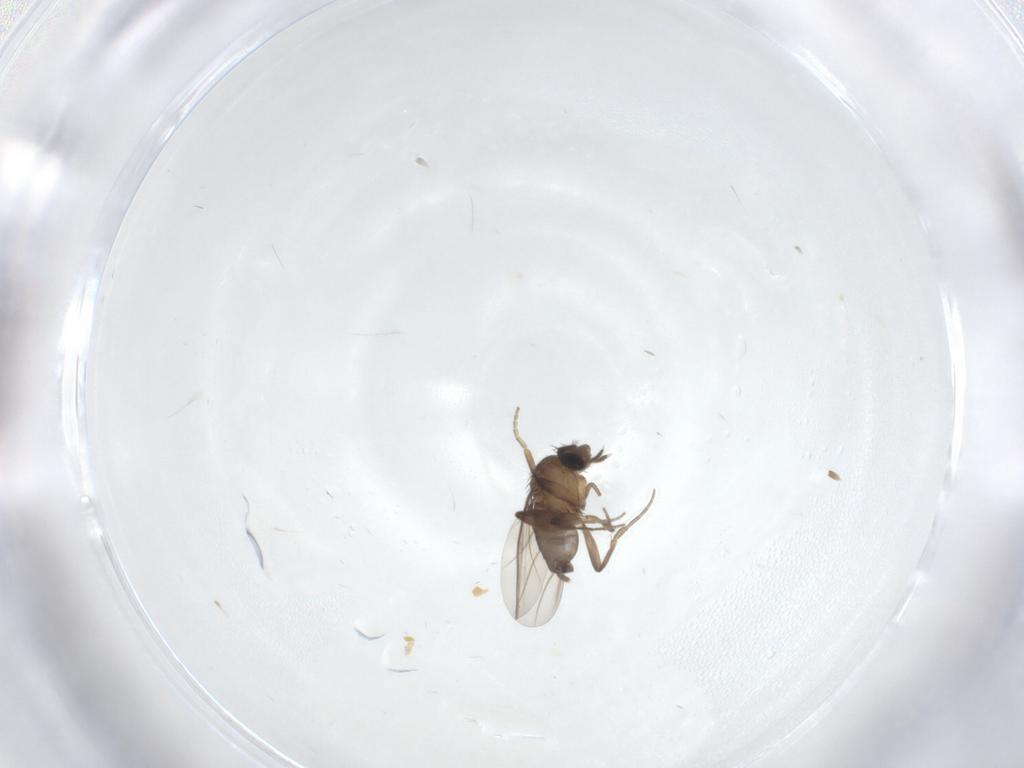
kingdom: Animalia
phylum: Arthropoda
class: Insecta
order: Diptera
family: Phoridae
